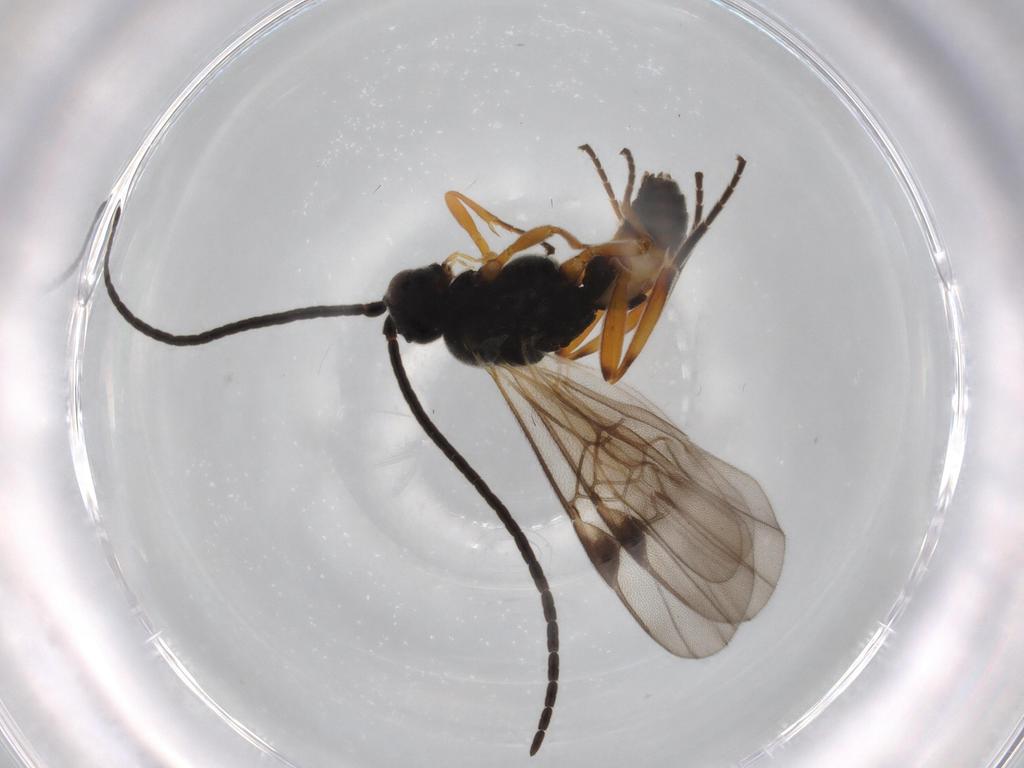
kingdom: Animalia
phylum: Arthropoda
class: Insecta
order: Hymenoptera
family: Braconidae
